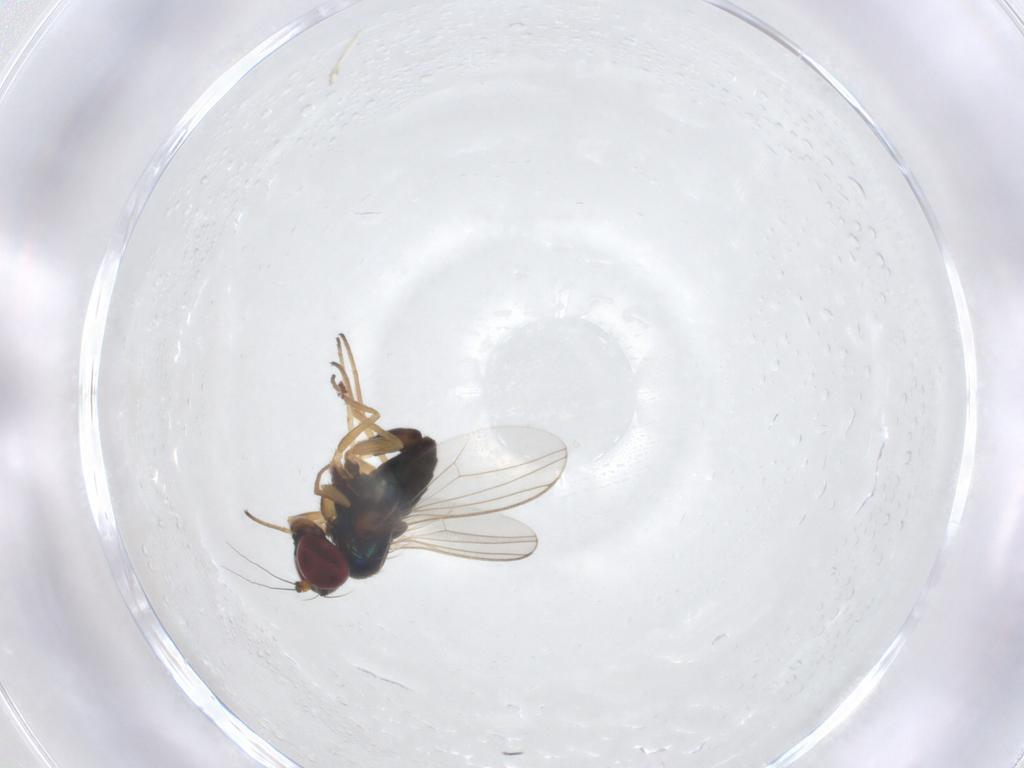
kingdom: Animalia
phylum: Arthropoda
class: Insecta
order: Diptera
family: Dolichopodidae
